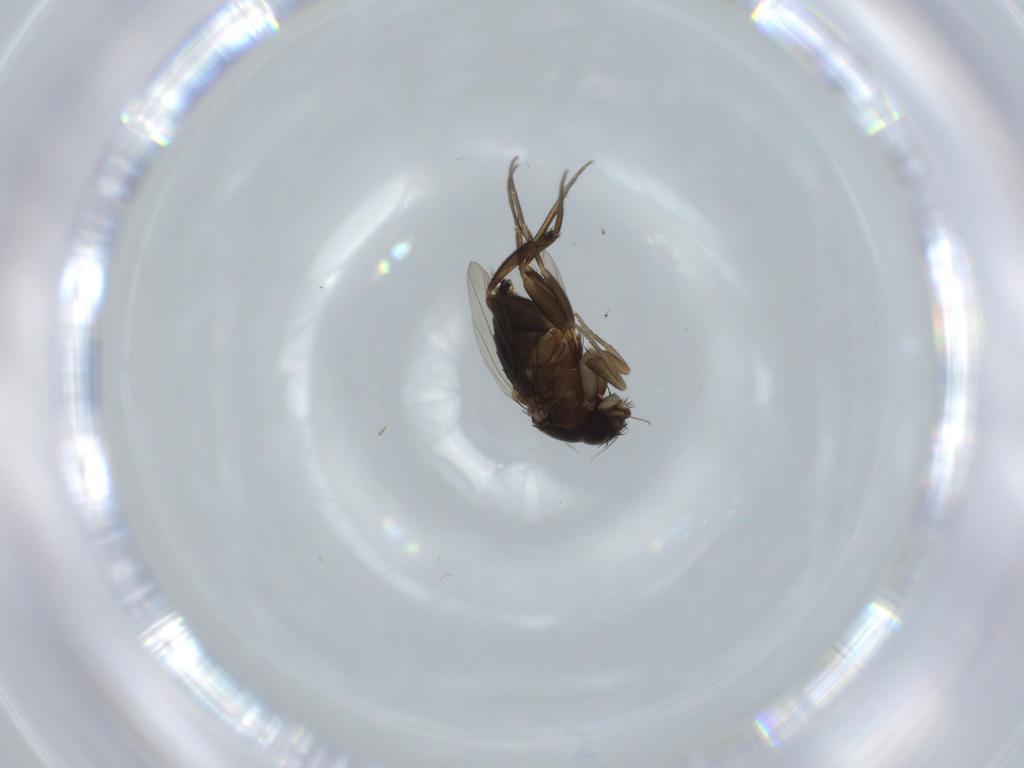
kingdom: Animalia
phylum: Arthropoda
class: Insecta
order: Diptera
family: Phoridae
